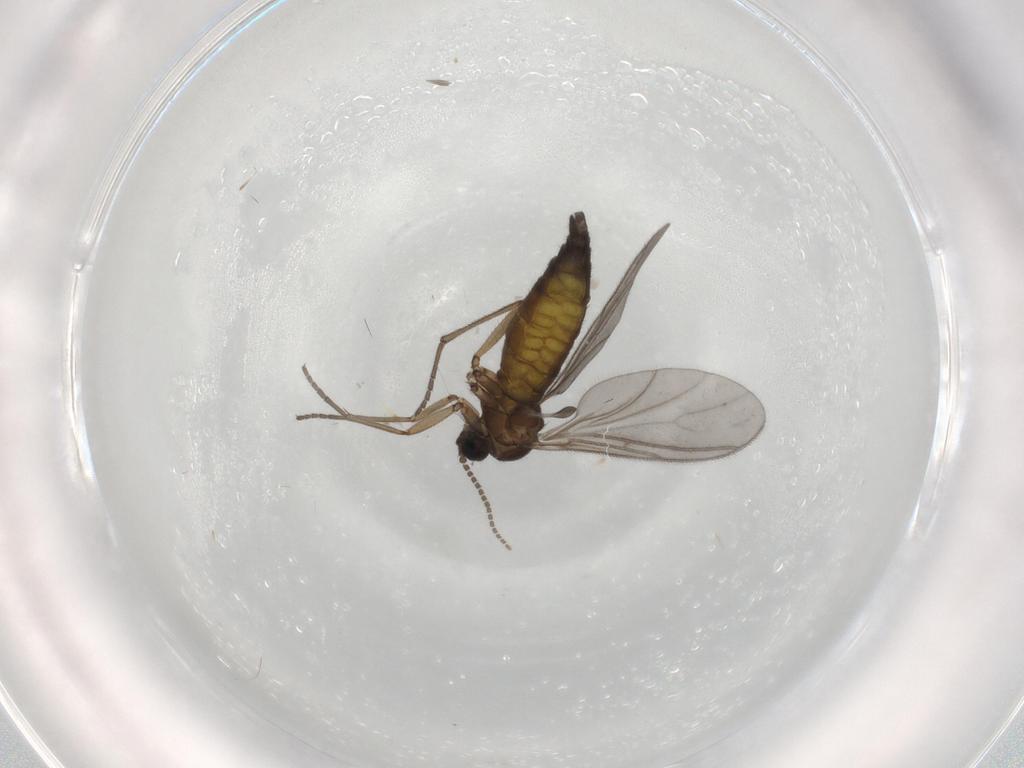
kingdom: Animalia
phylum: Arthropoda
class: Insecta
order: Diptera
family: Sciaridae
